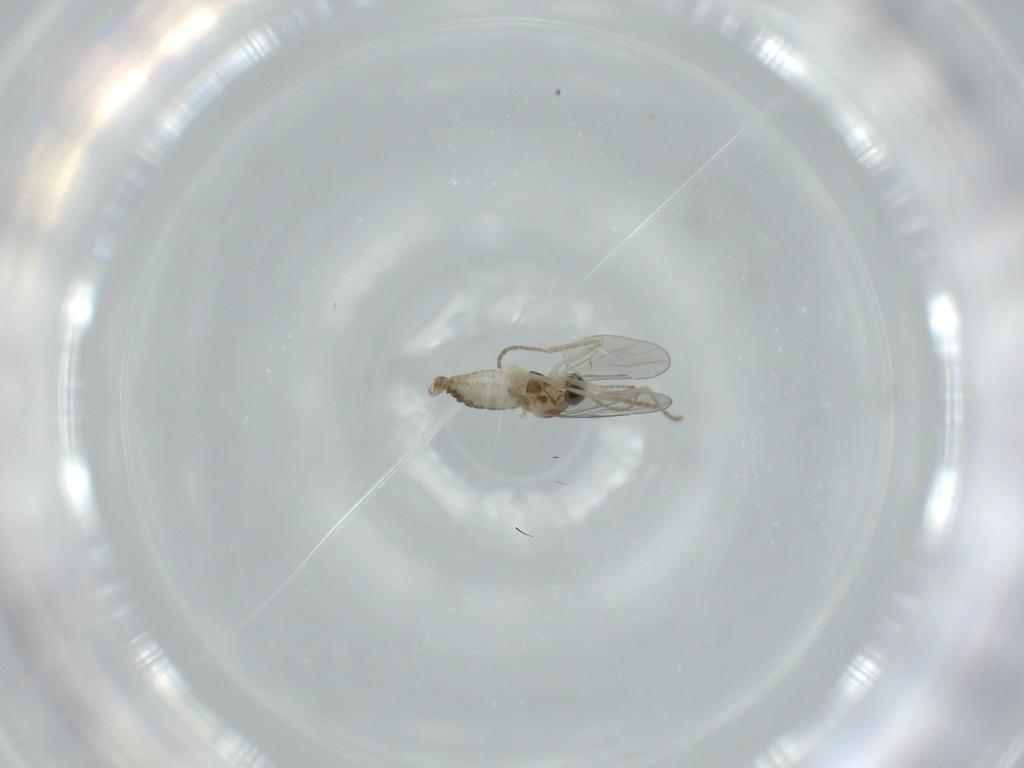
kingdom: Animalia
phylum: Arthropoda
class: Insecta
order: Diptera
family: Cecidomyiidae
